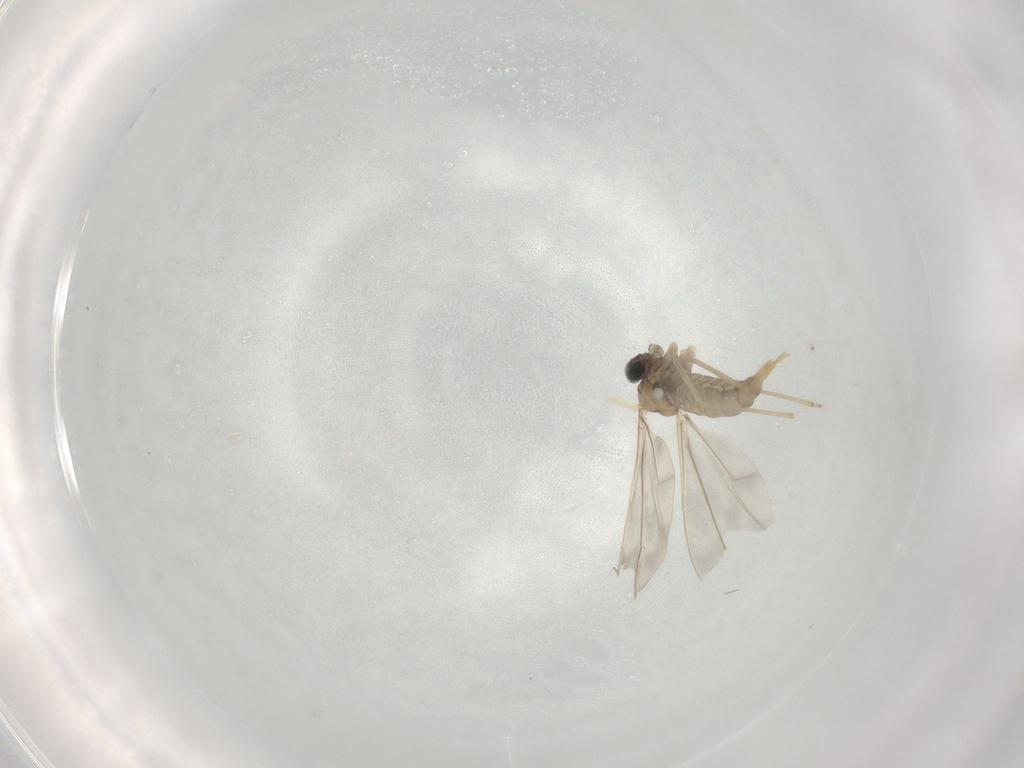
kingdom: Animalia
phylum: Arthropoda
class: Insecta
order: Diptera
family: Cecidomyiidae
